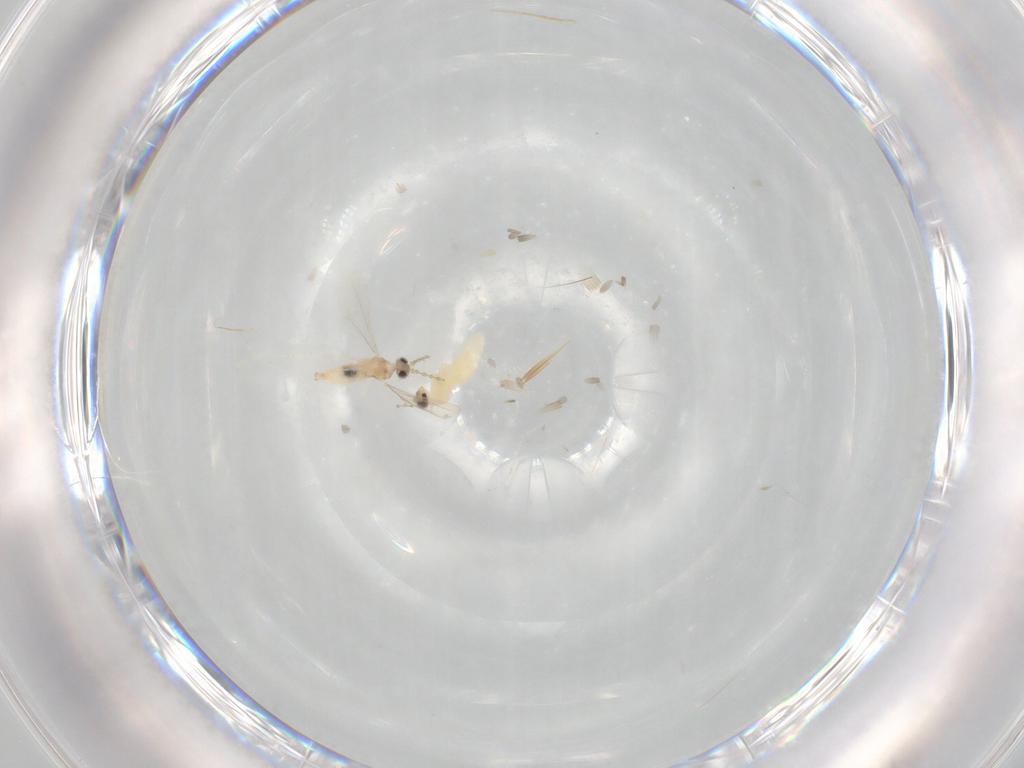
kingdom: Animalia
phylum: Arthropoda
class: Insecta
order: Diptera
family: Cecidomyiidae
